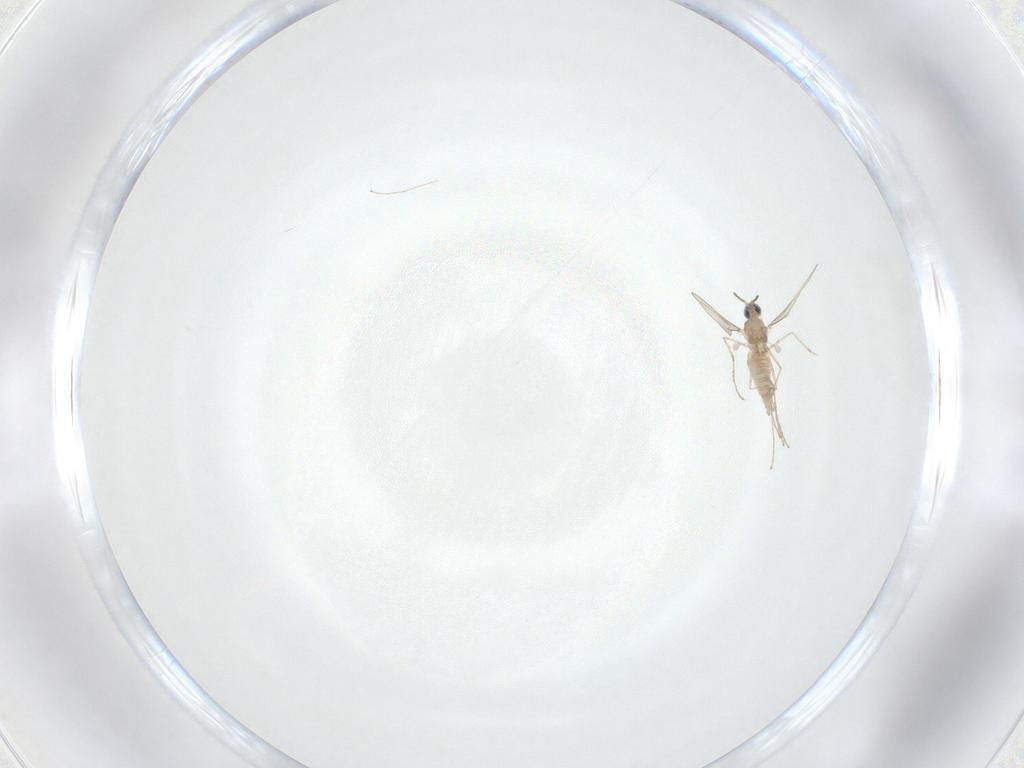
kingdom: Animalia
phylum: Arthropoda
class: Insecta
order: Diptera
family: Cecidomyiidae
